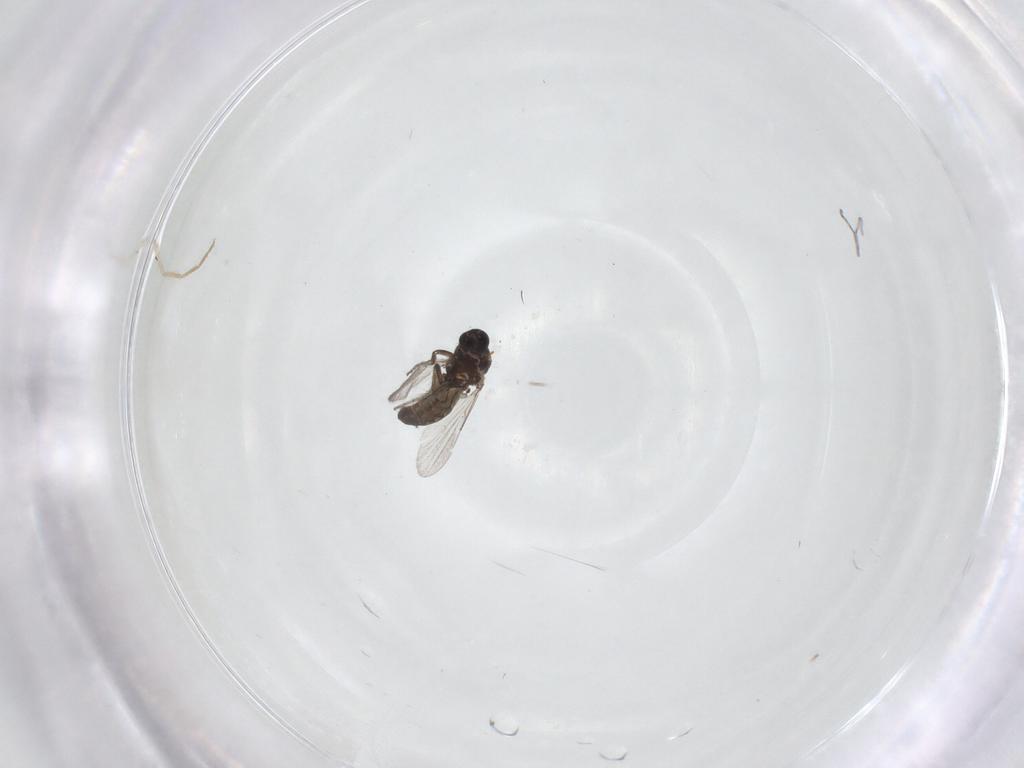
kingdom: Animalia
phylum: Arthropoda
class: Insecta
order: Diptera
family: Ceratopogonidae
